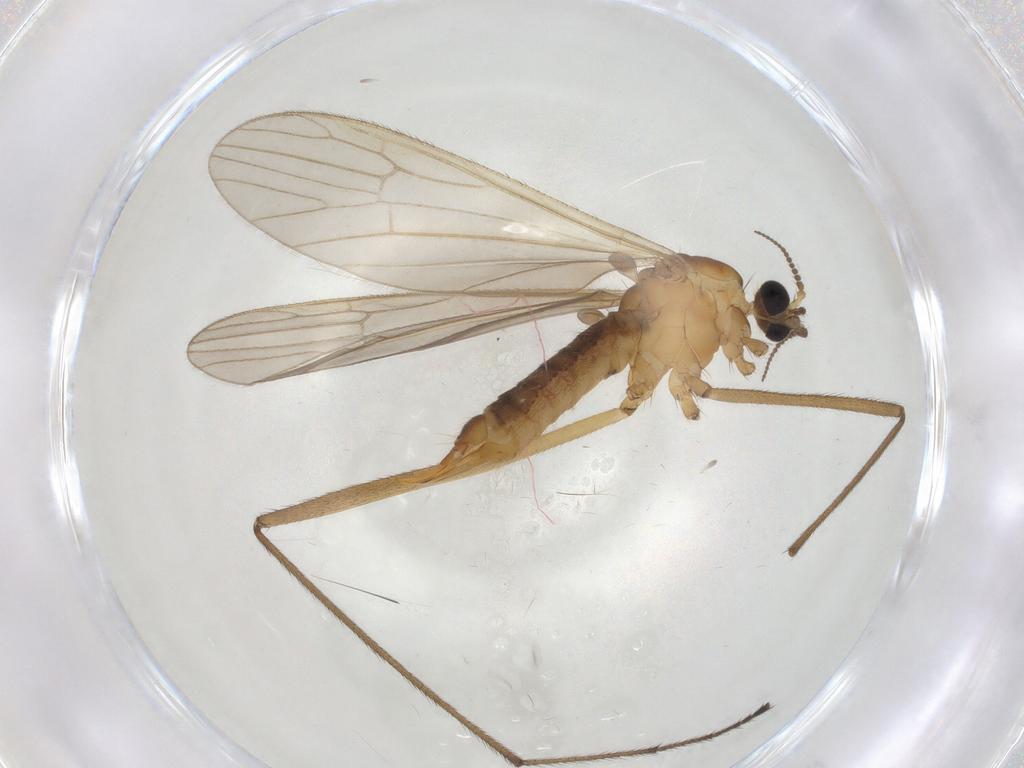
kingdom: Animalia
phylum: Arthropoda
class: Insecta
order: Diptera
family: Limoniidae
